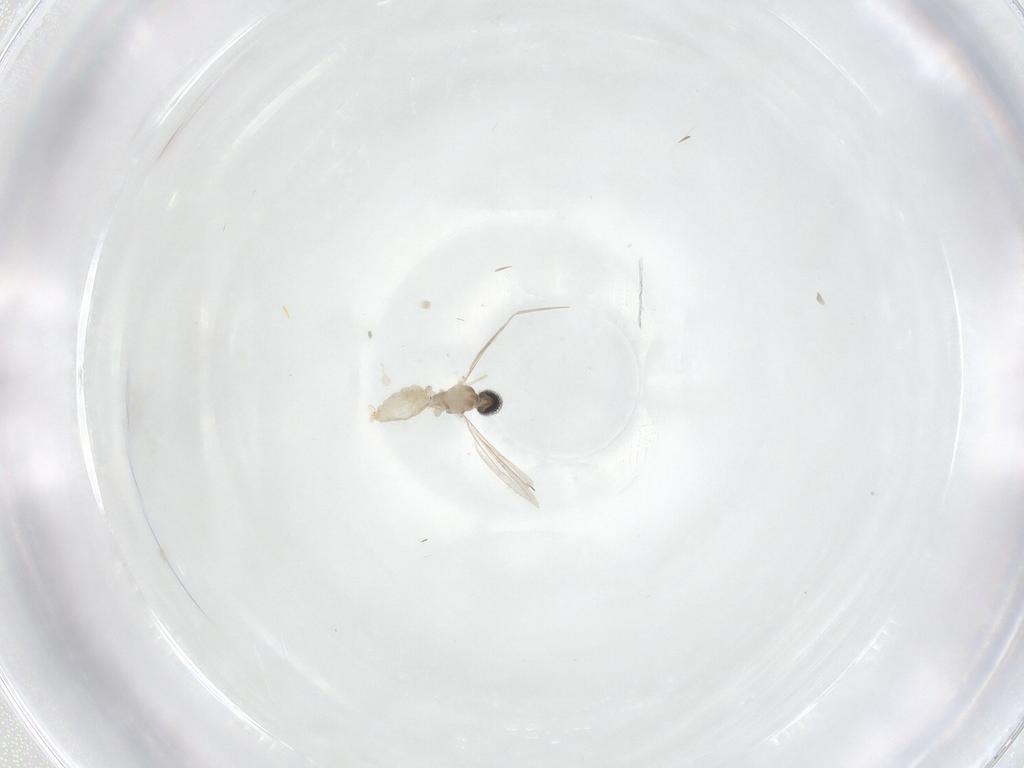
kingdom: Animalia
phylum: Arthropoda
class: Insecta
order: Diptera
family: Cecidomyiidae
